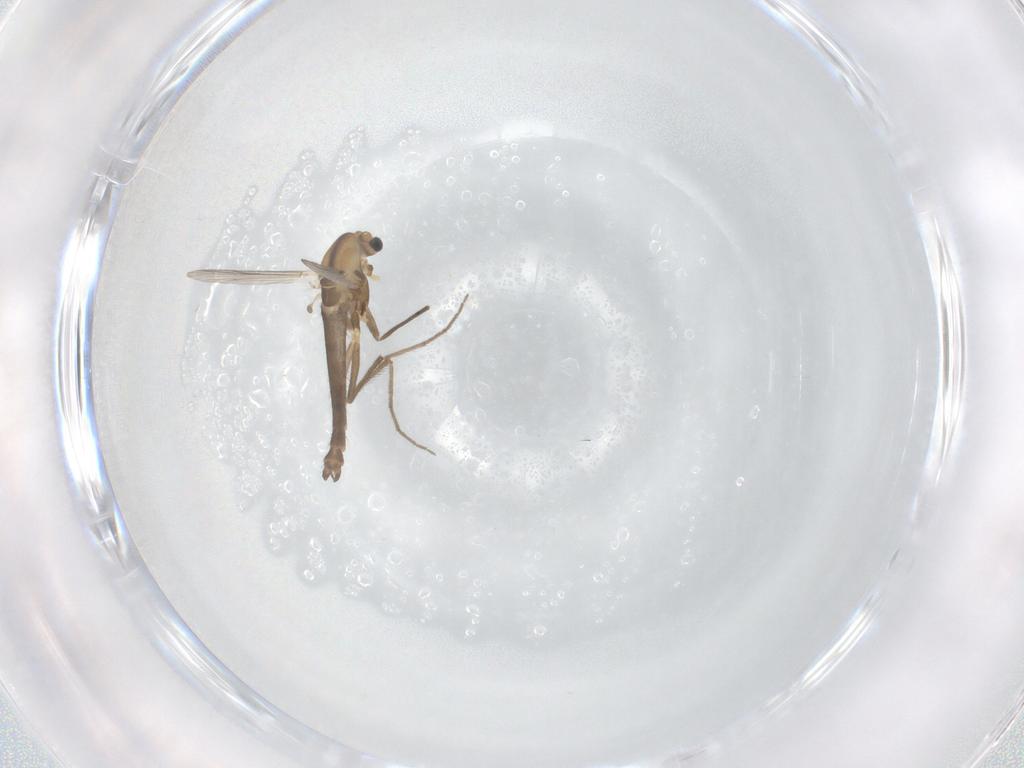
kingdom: Animalia
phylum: Arthropoda
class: Insecta
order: Diptera
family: Chironomidae
